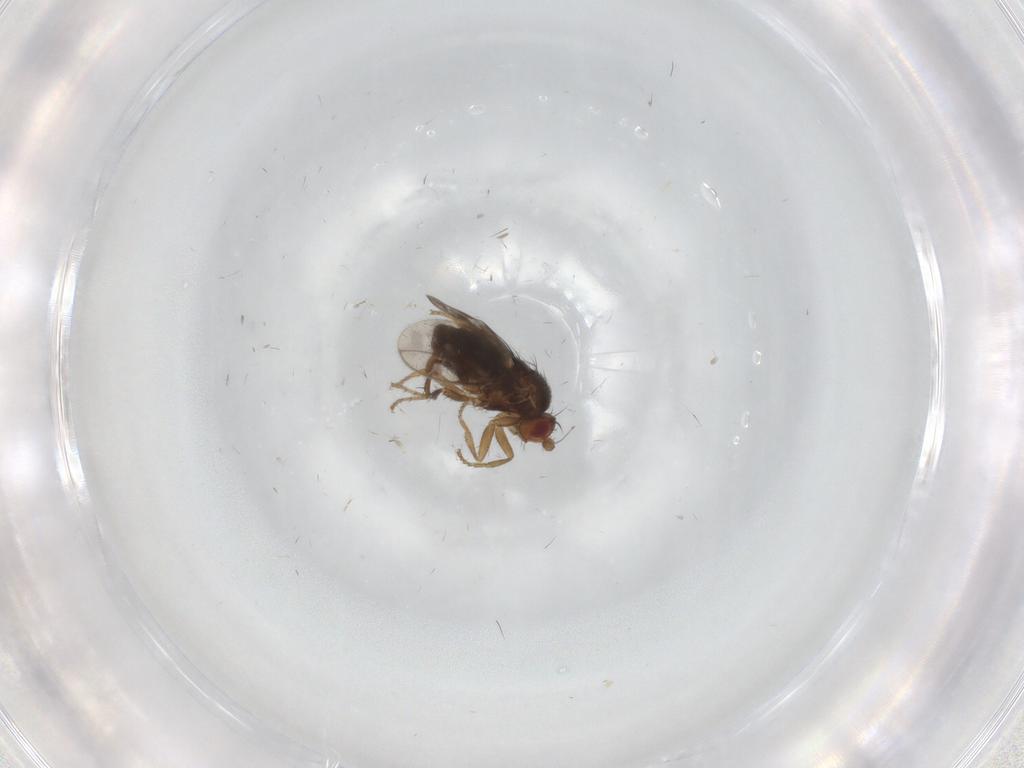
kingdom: Animalia
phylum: Arthropoda
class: Insecta
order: Diptera
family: Sphaeroceridae
